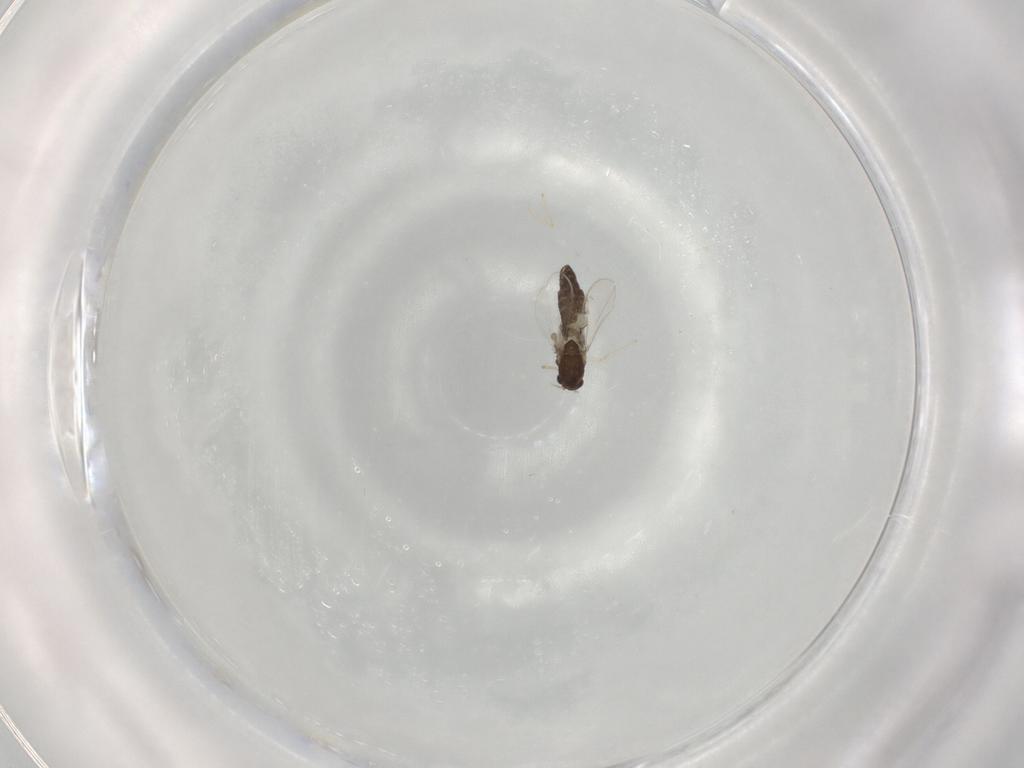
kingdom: Animalia
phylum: Arthropoda
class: Insecta
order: Diptera
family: Chironomidae
